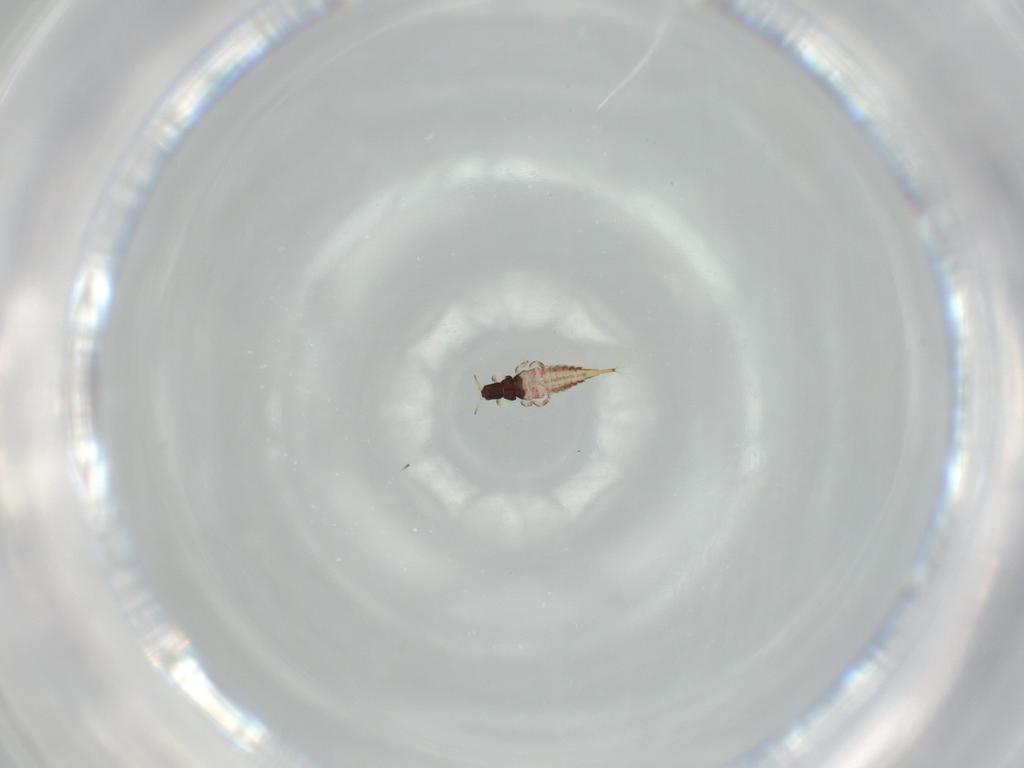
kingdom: Animalia
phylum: Arthropoda
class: Insecta
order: Thysanoptera
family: Phlaeothripidae
